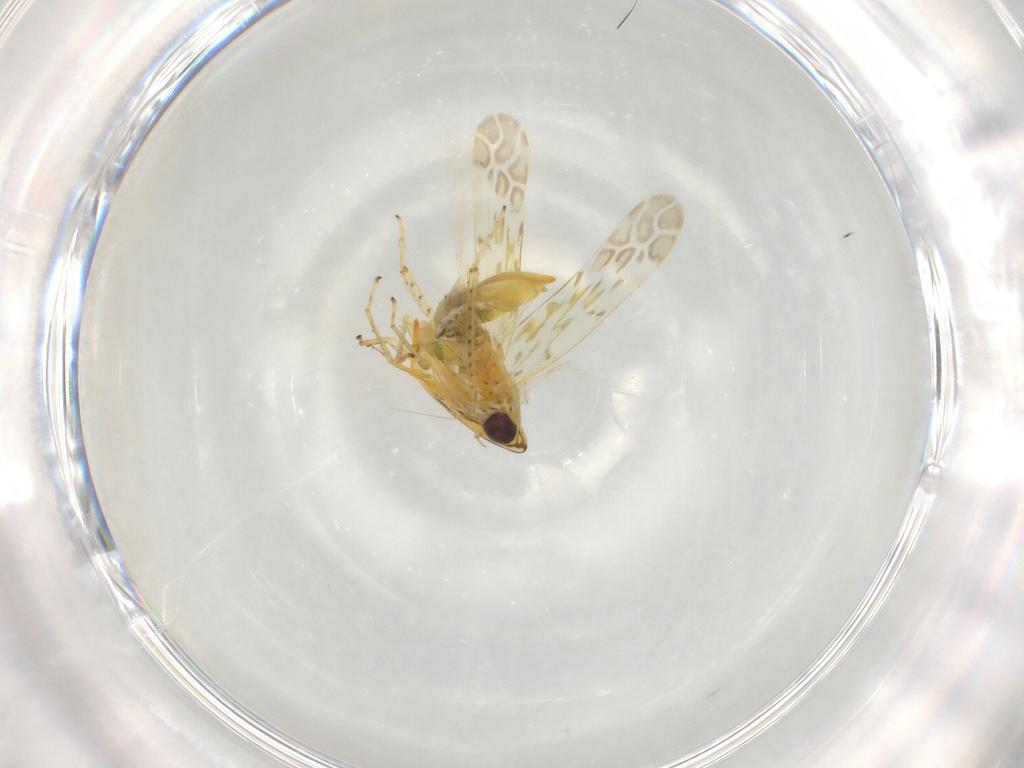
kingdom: Animalia
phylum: Arthropoda
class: Insecta
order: Hemiptera
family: Cicadellidae
